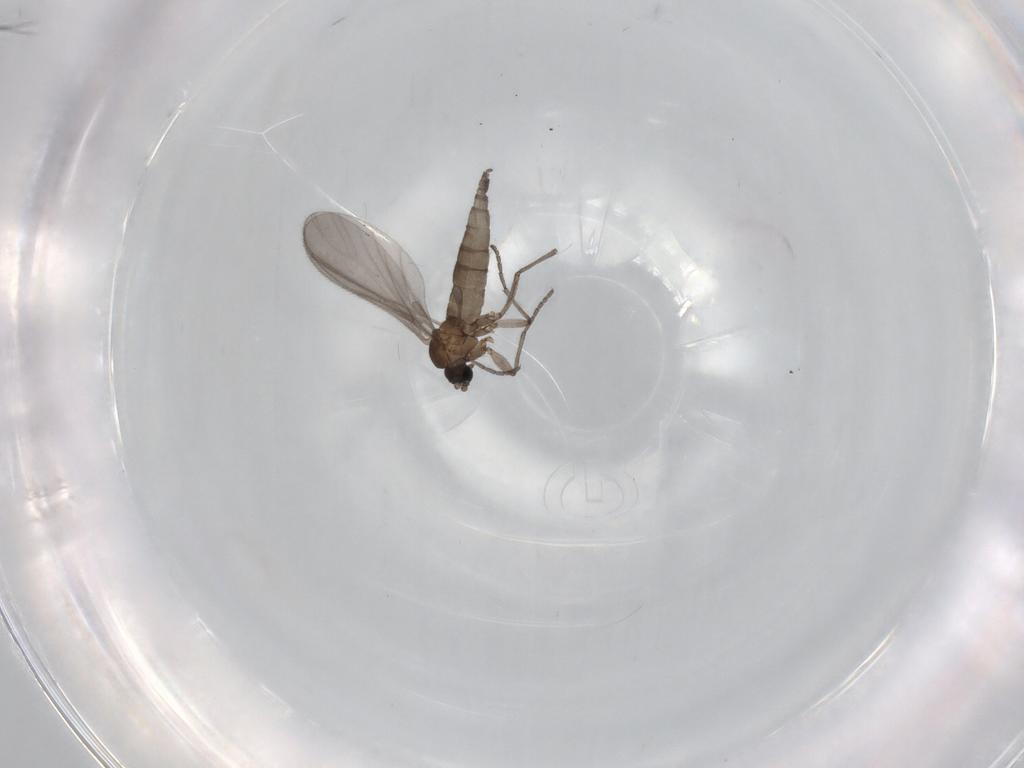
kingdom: Animalia
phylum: Arthropoda
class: Insecta
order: Diptera
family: Sciaridae
